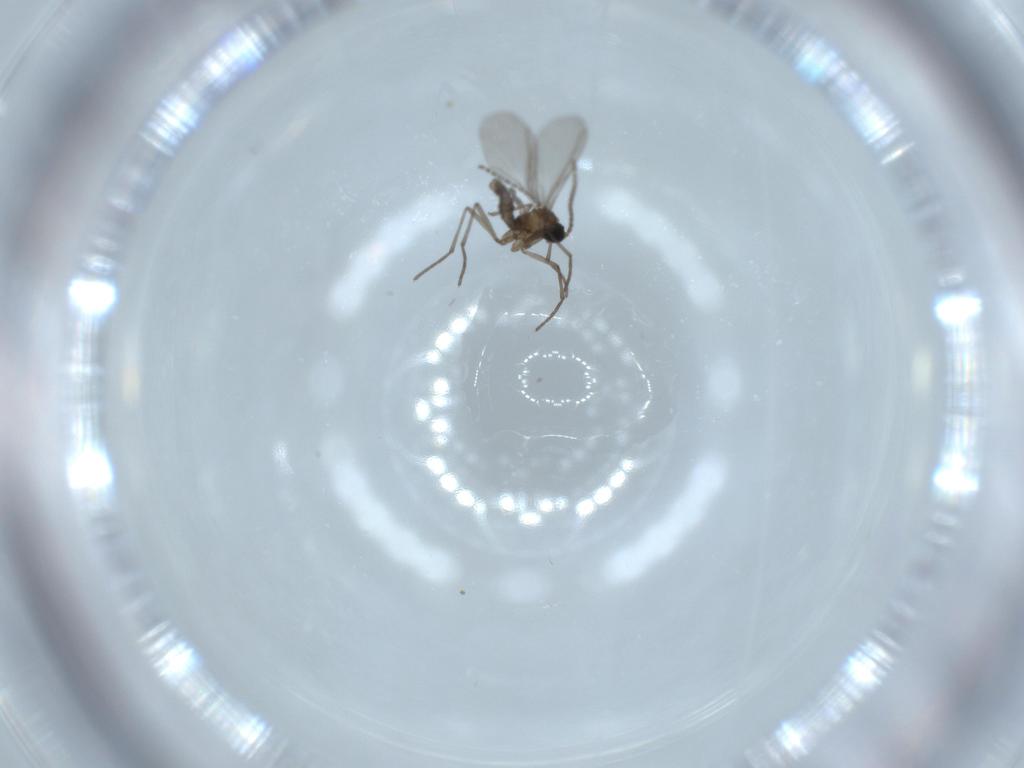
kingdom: Animalia
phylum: Arthropoda
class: Insecta
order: Diptera
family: Sciaridae
